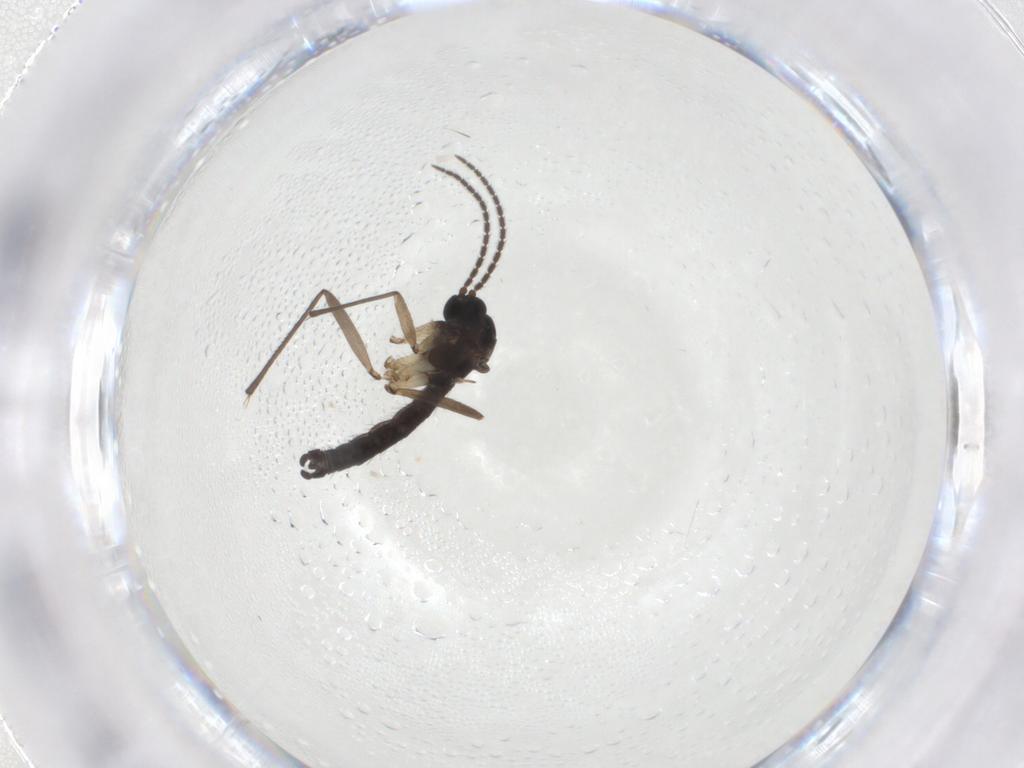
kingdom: Animalia
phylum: Arthropoda
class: Insecta
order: Diptera
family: Sciaridae
